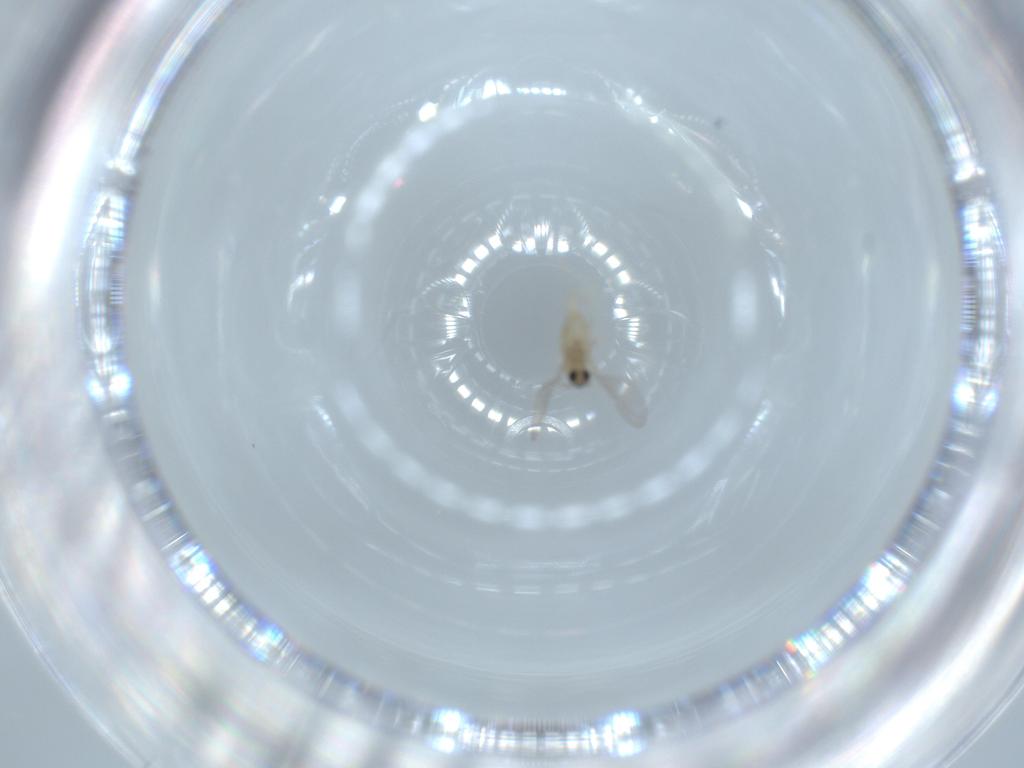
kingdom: Animalia
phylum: Arthropoda
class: Insecta
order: Diptera
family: Cecidomyiidae
